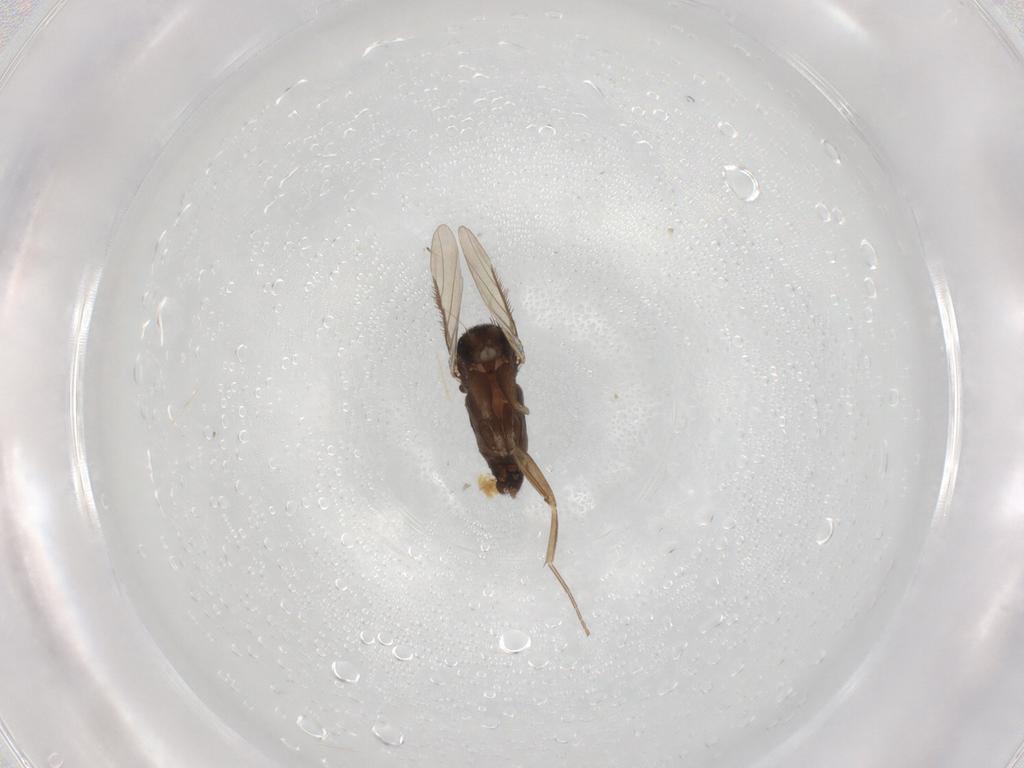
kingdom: Animalia
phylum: Arthropoda
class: Insecta
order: Diptera
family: Phoridae
